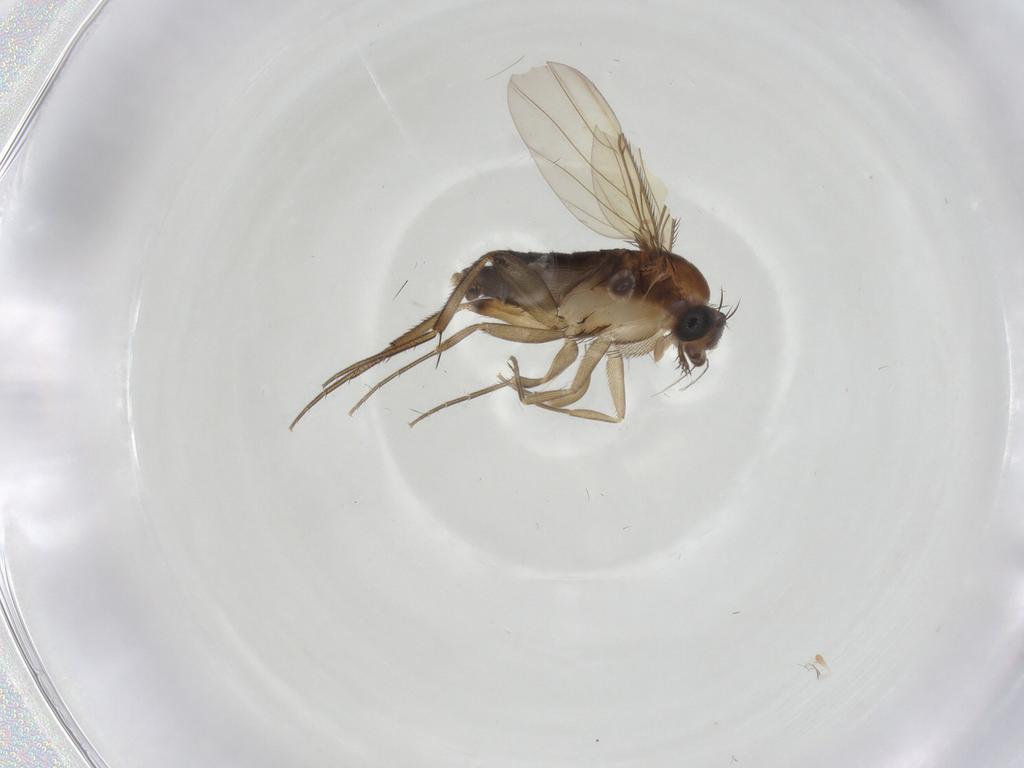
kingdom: Animalia
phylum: Arthropoda
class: Insecta
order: Diptera
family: Phoridae
